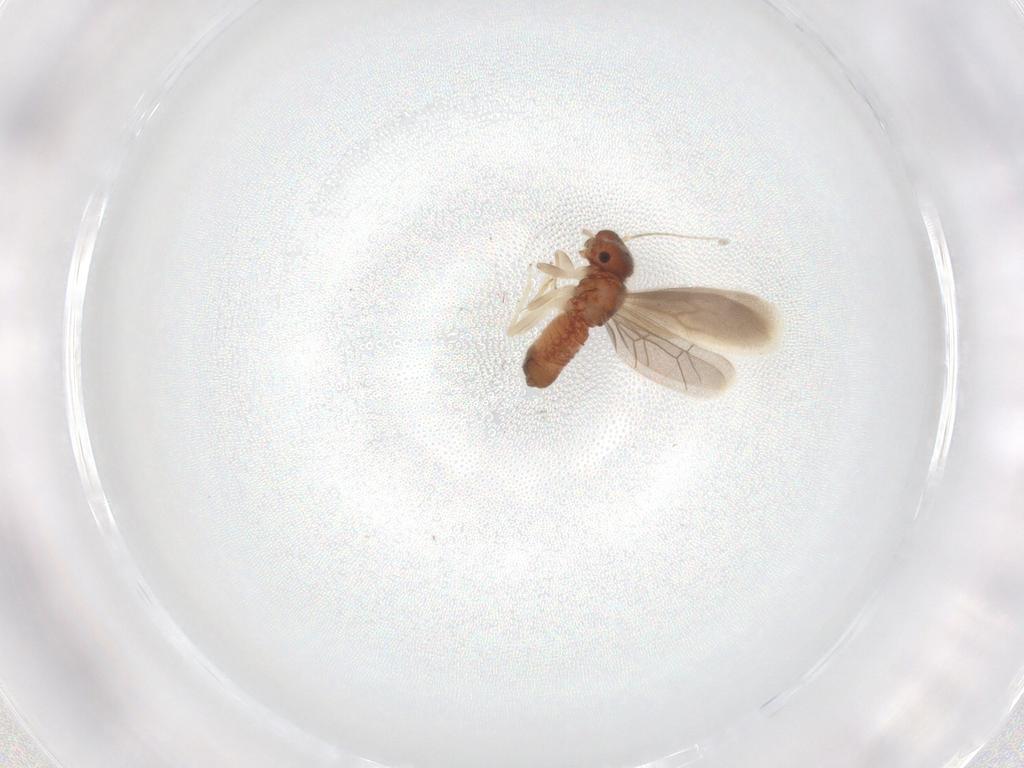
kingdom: Animalia
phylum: Arthropoda
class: Insecta
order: Psocodea
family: Archipsocidae
